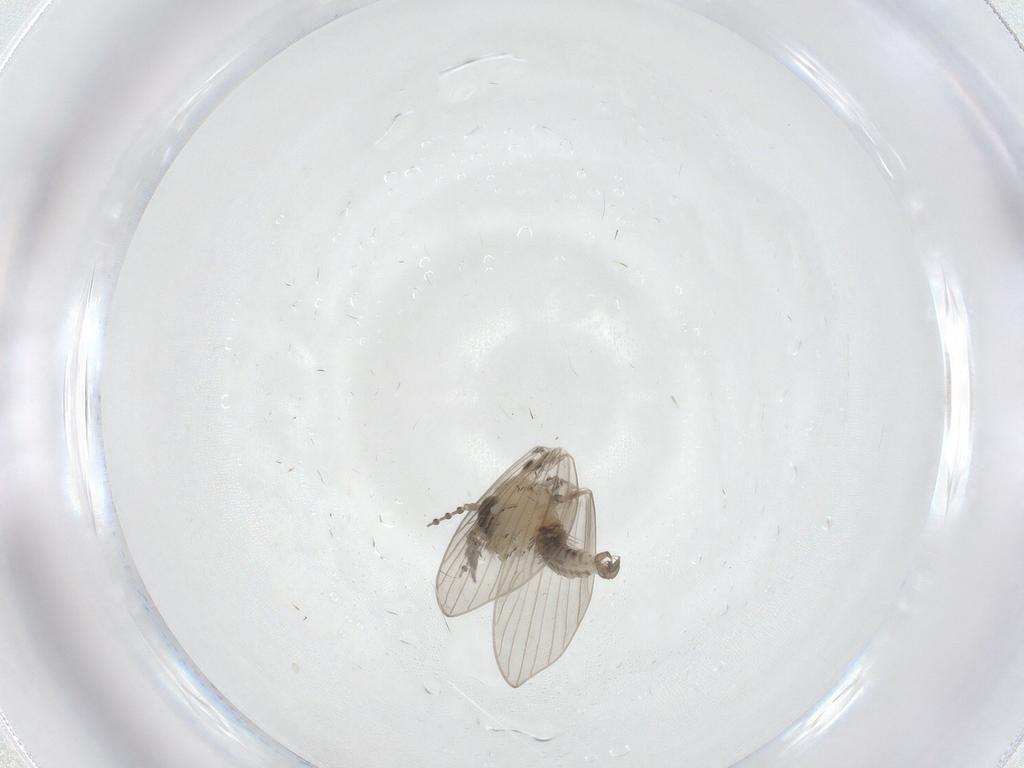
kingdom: Animalia
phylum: Arthropoda
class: Insecta
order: Diptera
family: Psychodidae
